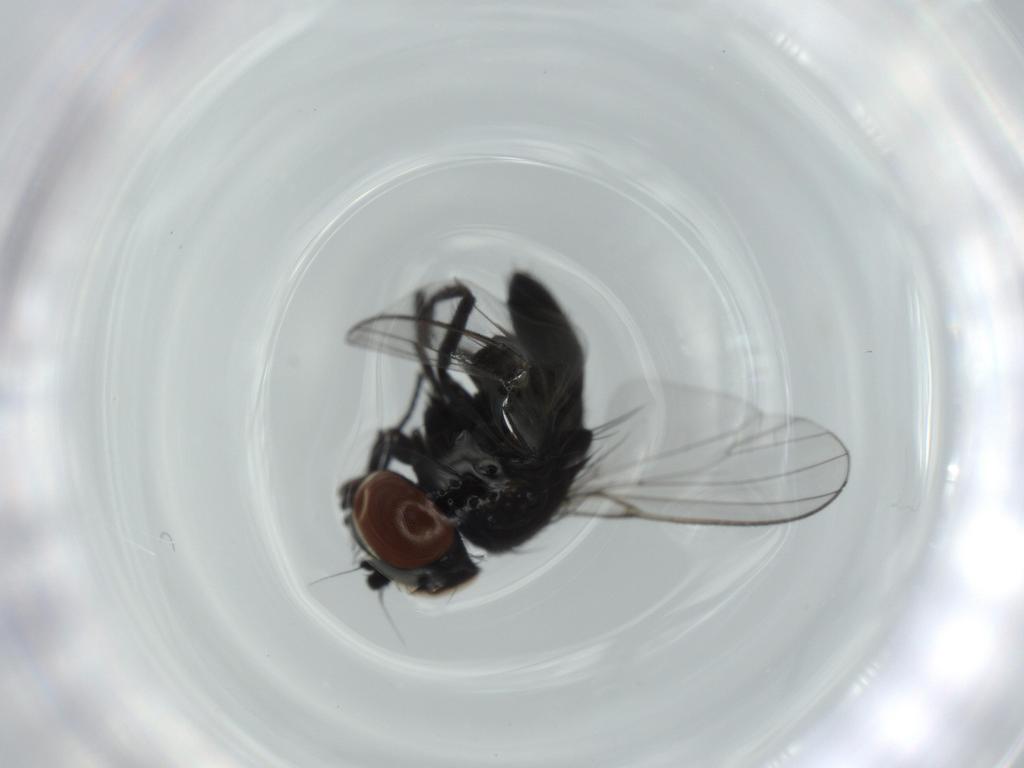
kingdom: Animalia
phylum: Arthropoda
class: Insecta
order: Diptera
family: Milichiidae
